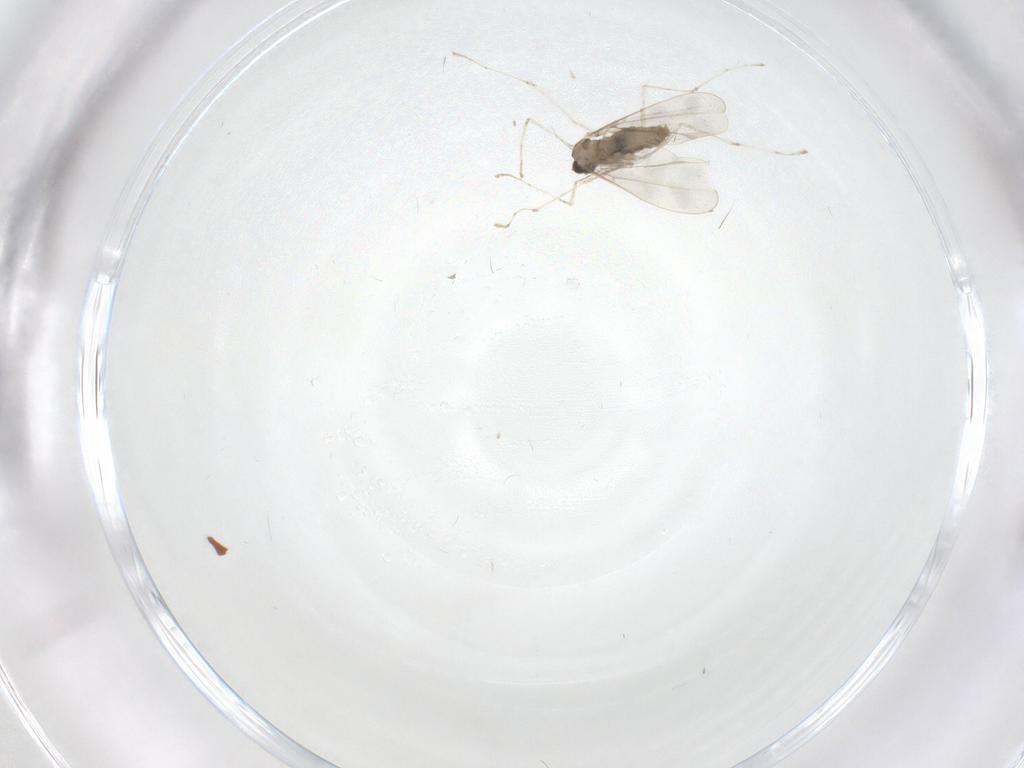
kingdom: Animalia
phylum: Arthropoda
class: Insecta
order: Diptera
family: Cecidomyiidae
